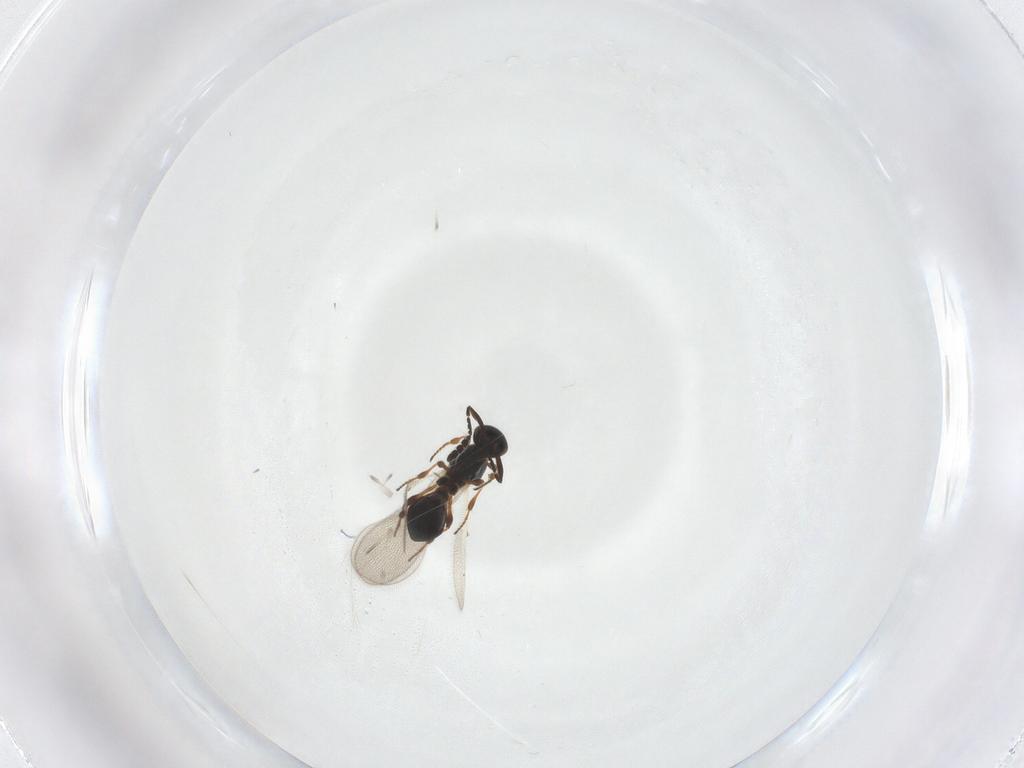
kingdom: Animalia
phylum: Arthropoda
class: Insecta
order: Hymenoptera
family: Platygastridae
